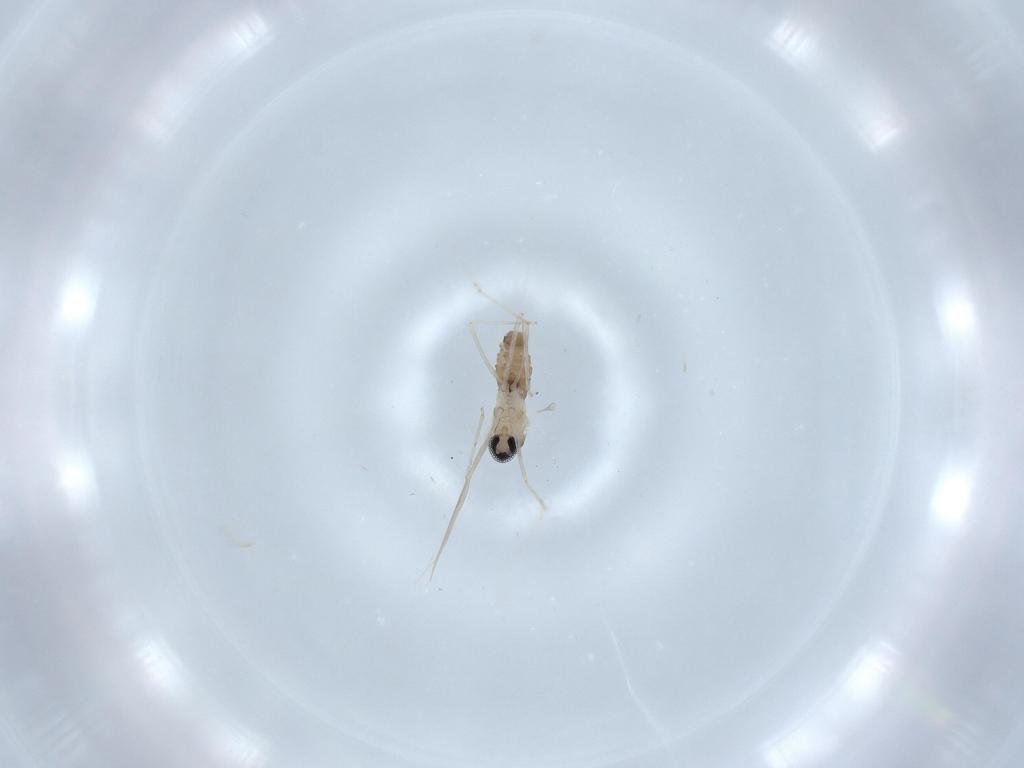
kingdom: Animalia
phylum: Arthropoda
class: Insecta
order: Diptera
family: Cecidomyiidae
